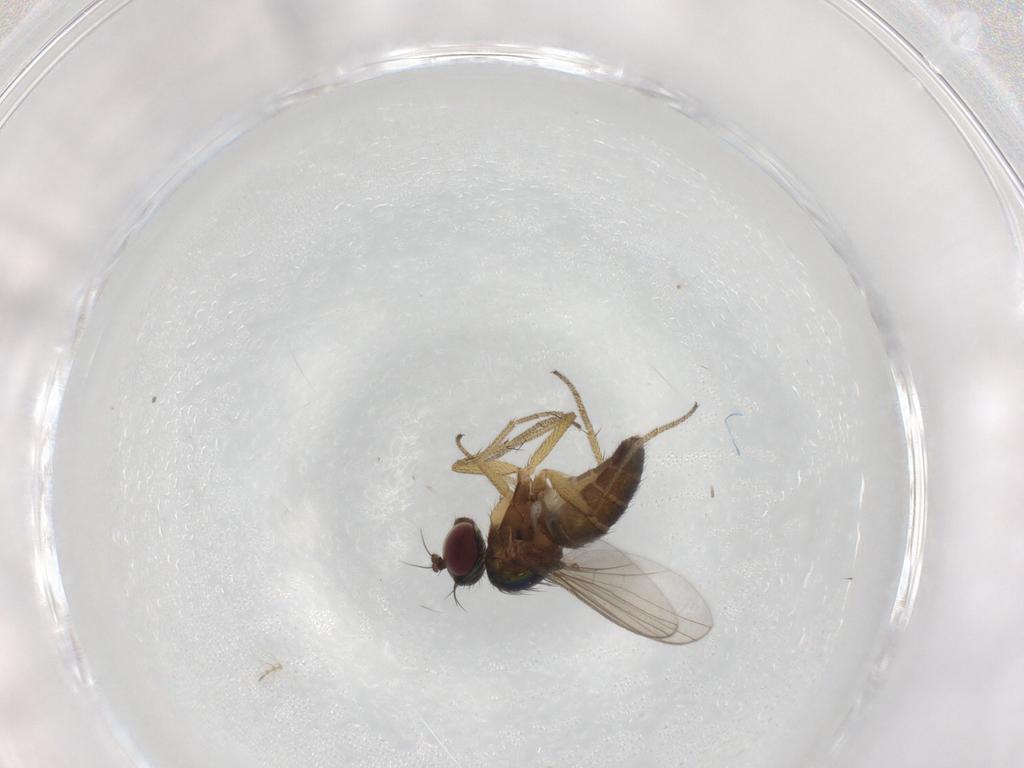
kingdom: Animalia
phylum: Arthropoda
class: Insecta
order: Diptera
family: Dolichopodidae
